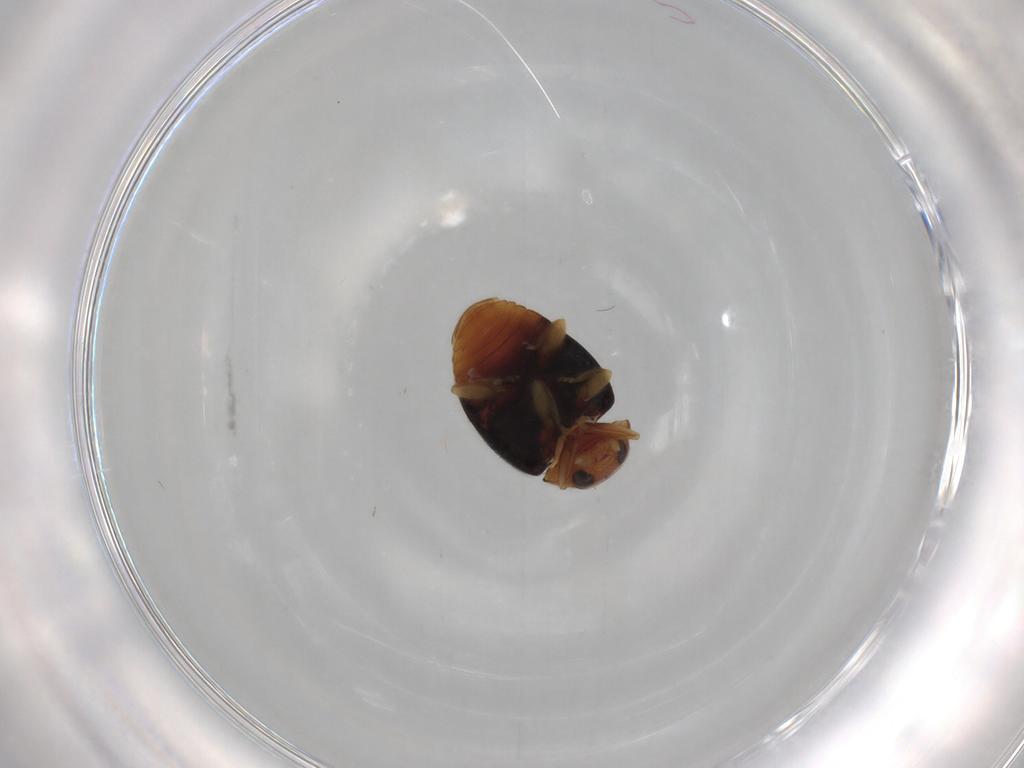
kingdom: Animalia
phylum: Arthropoda
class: Insecta
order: Coleoptera
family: Coccinellidae
